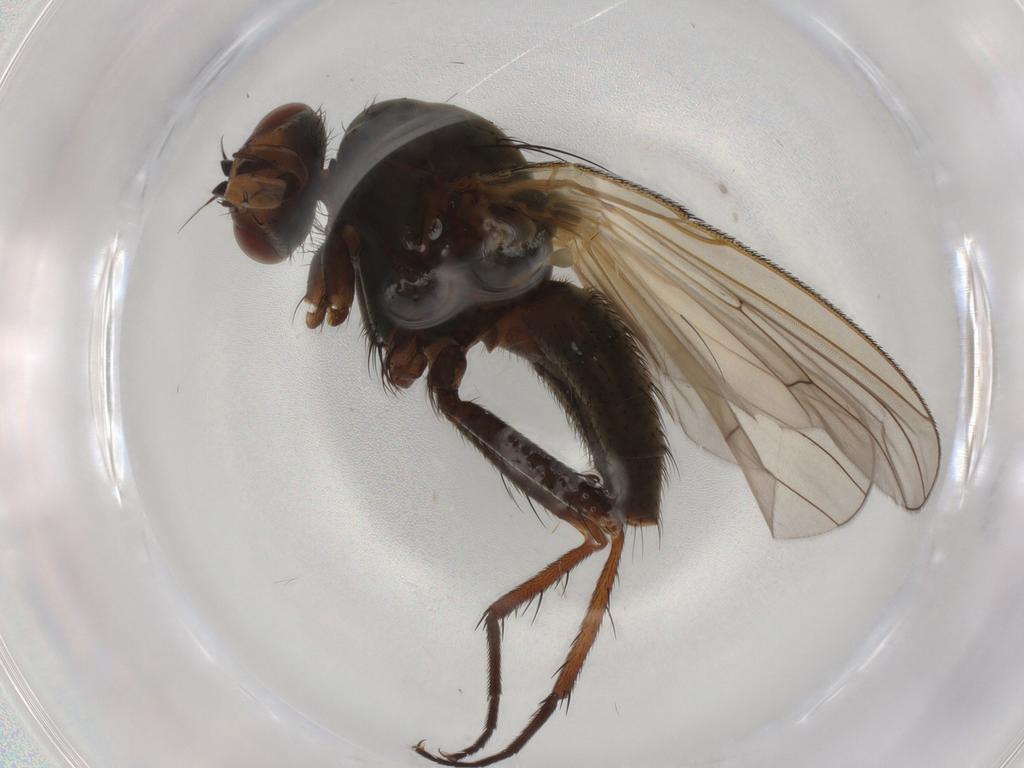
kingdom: Animalia
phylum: Arthropoda
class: Insecta
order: Diptera
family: Anthomyiidae
